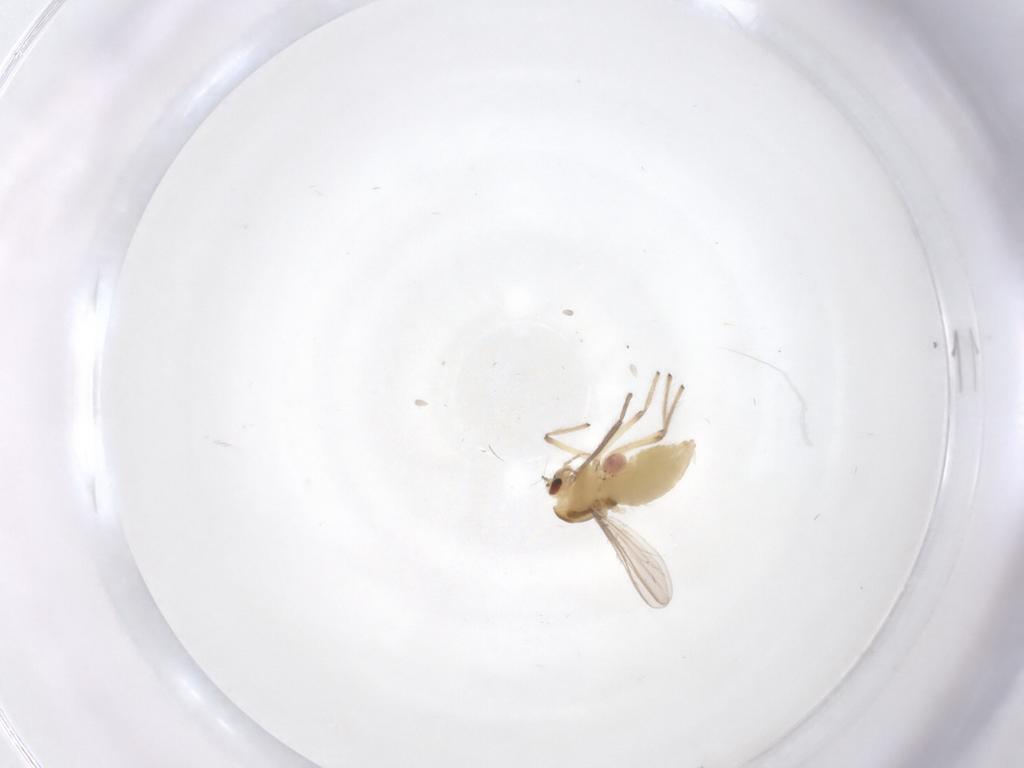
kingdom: Animalia
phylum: Arthropoda
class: Insecta
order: Diptera
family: Chironomidae
